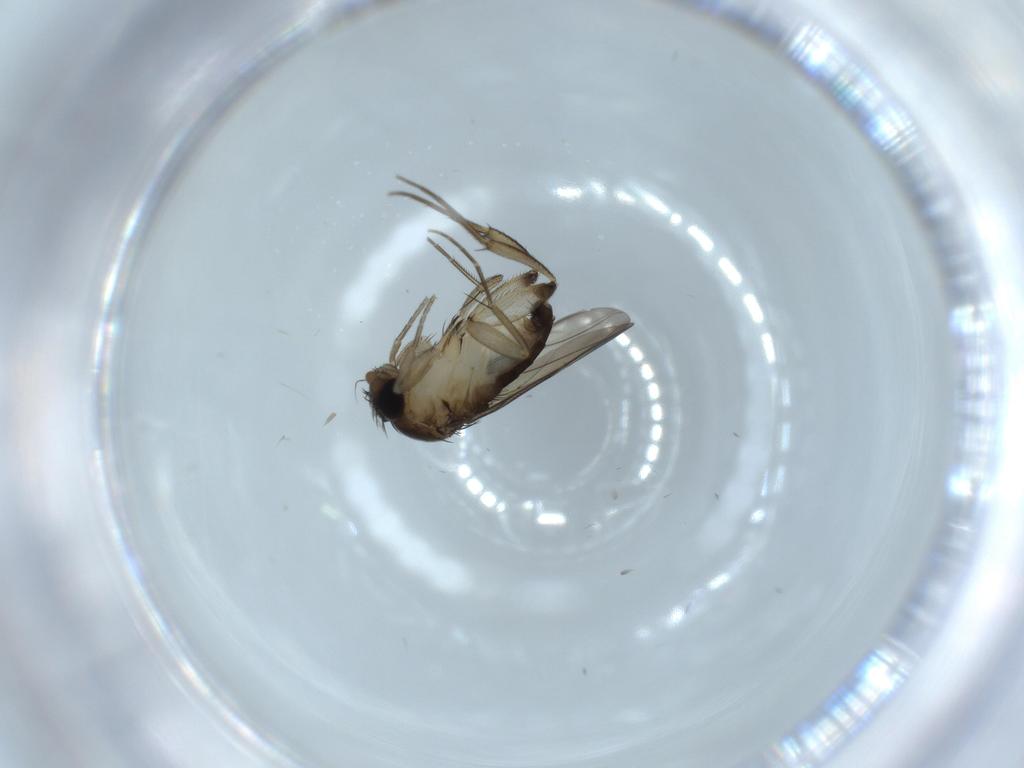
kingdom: Animalia
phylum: Arthropoda
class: Insecta
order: Diptera
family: Phoridae
